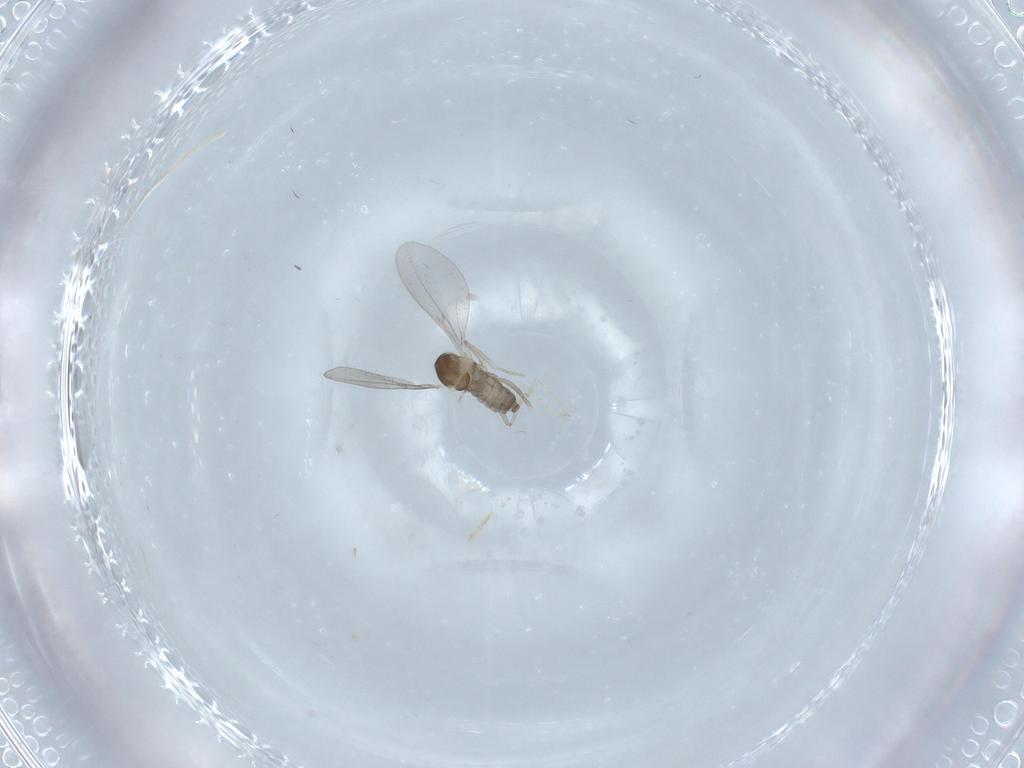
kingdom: Animalia
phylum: Arthropoda
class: Insecta
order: Diptera
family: Cecidomyiidae
